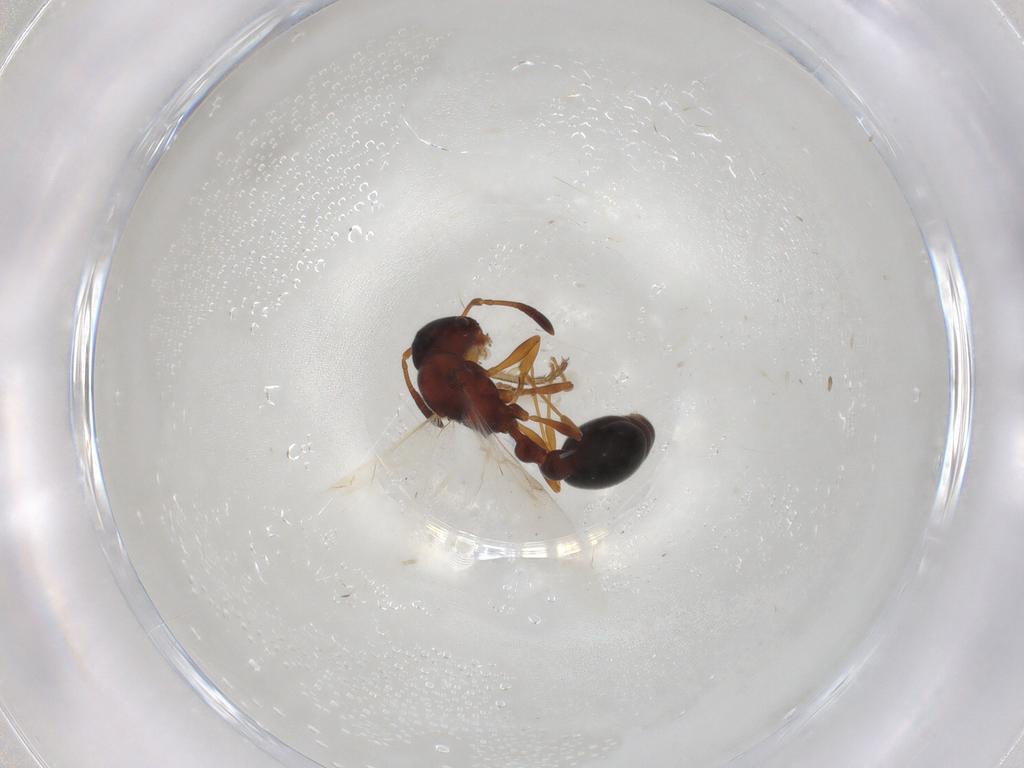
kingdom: Animalia
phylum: Arthropoda
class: Insecta
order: Hymenoptera
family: Formicidae
